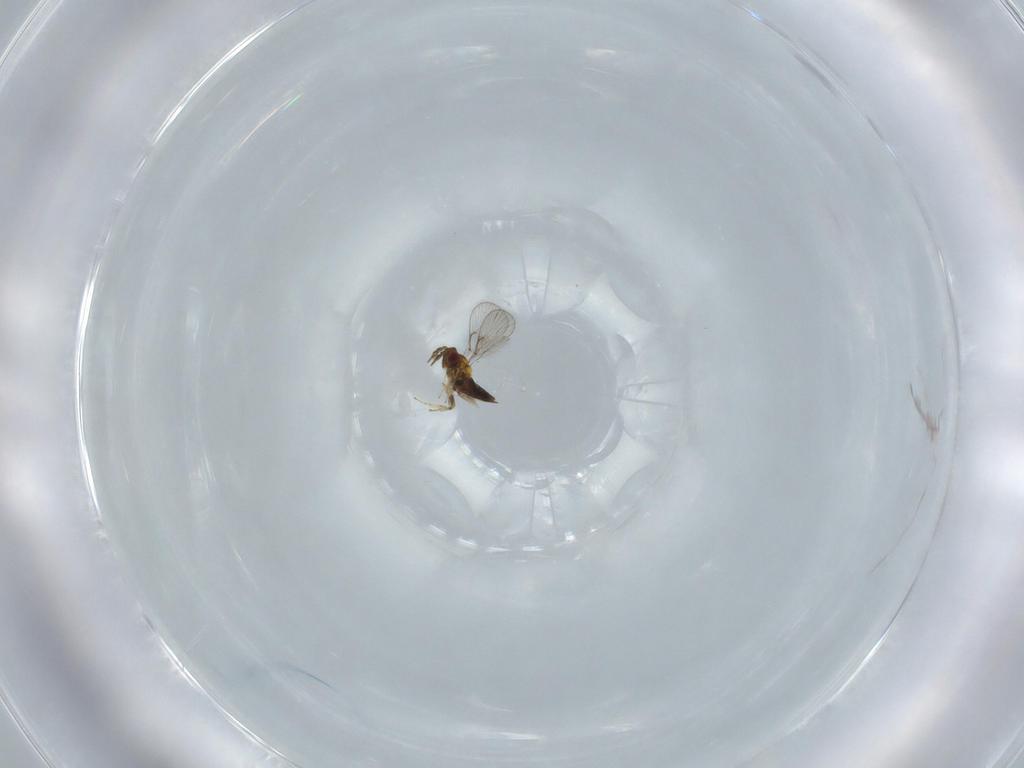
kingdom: Animalia
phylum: Arthropoda
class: Insecta
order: Hymenoptera
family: Trichogrammatidae
